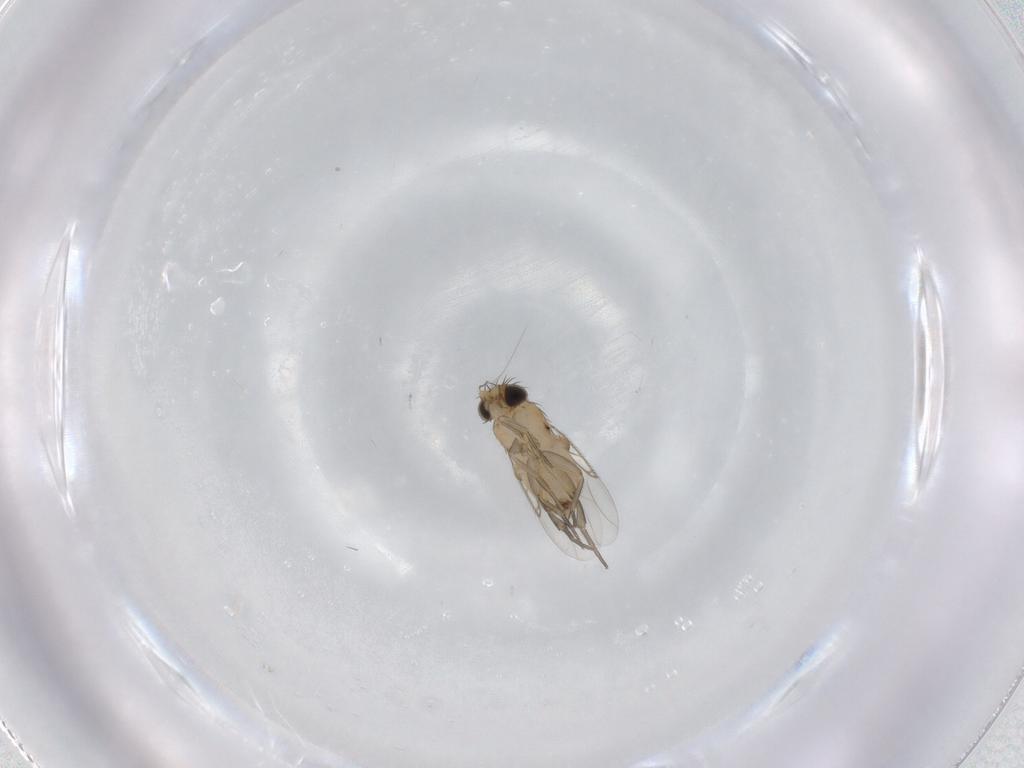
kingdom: Animalia
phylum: Arthropoda
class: Insecta
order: Diptera
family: Phoridae
